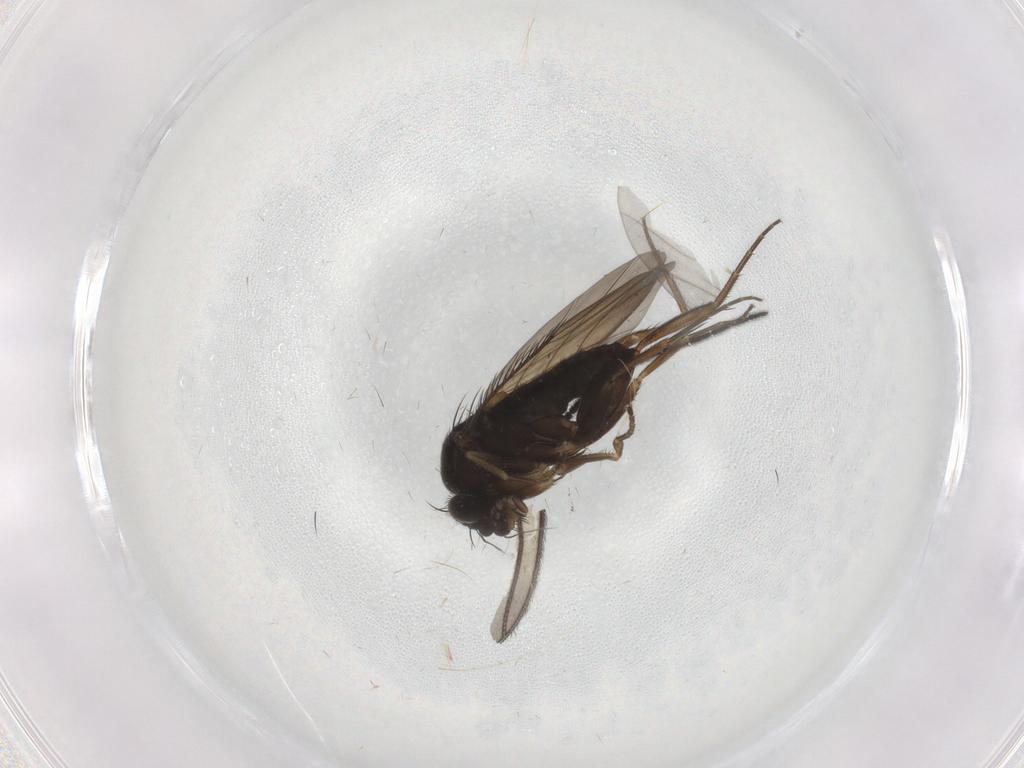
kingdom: Animalia
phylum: Arthropoda
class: Insecta
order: Diptera
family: Phoridae
